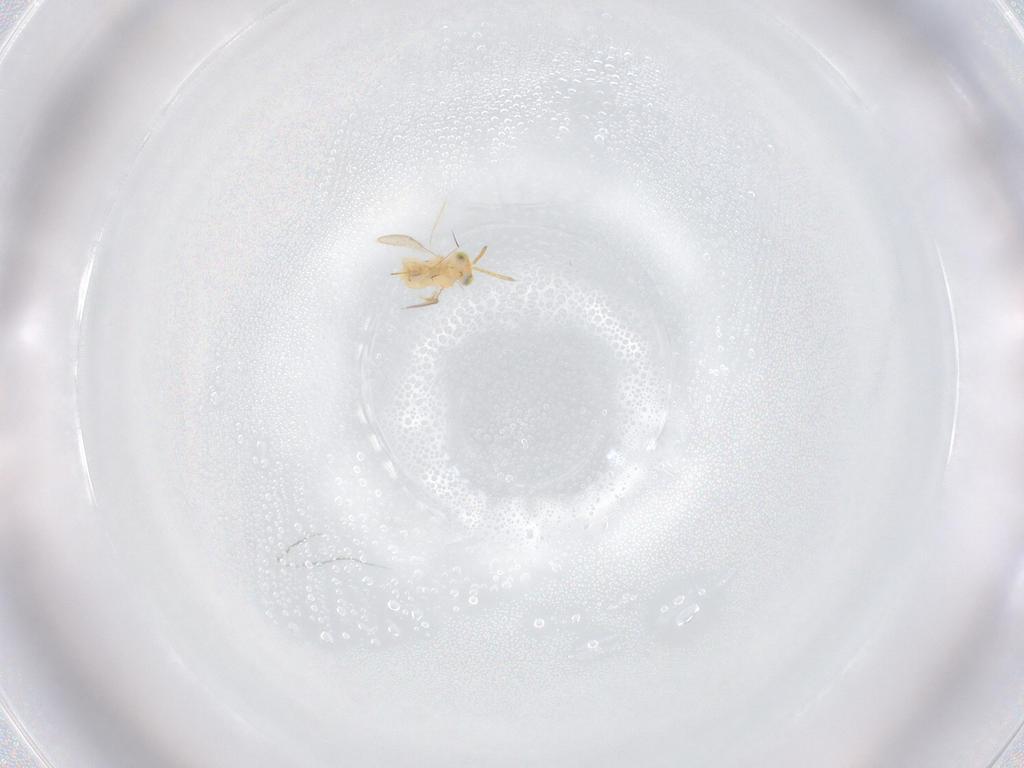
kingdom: Animalia
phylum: Arthropoda
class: Insecta
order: Hymenoptera
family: Aphelinidae
